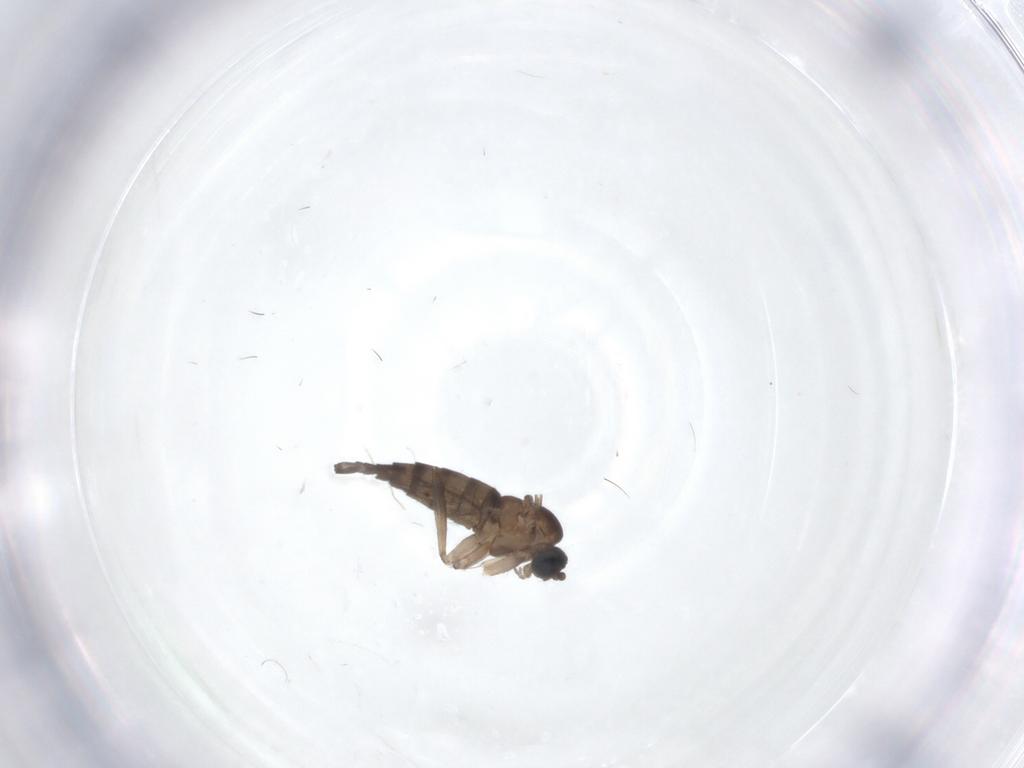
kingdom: Animalia
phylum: Arthropoda
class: Insecta
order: Diptera
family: Sciaridae
